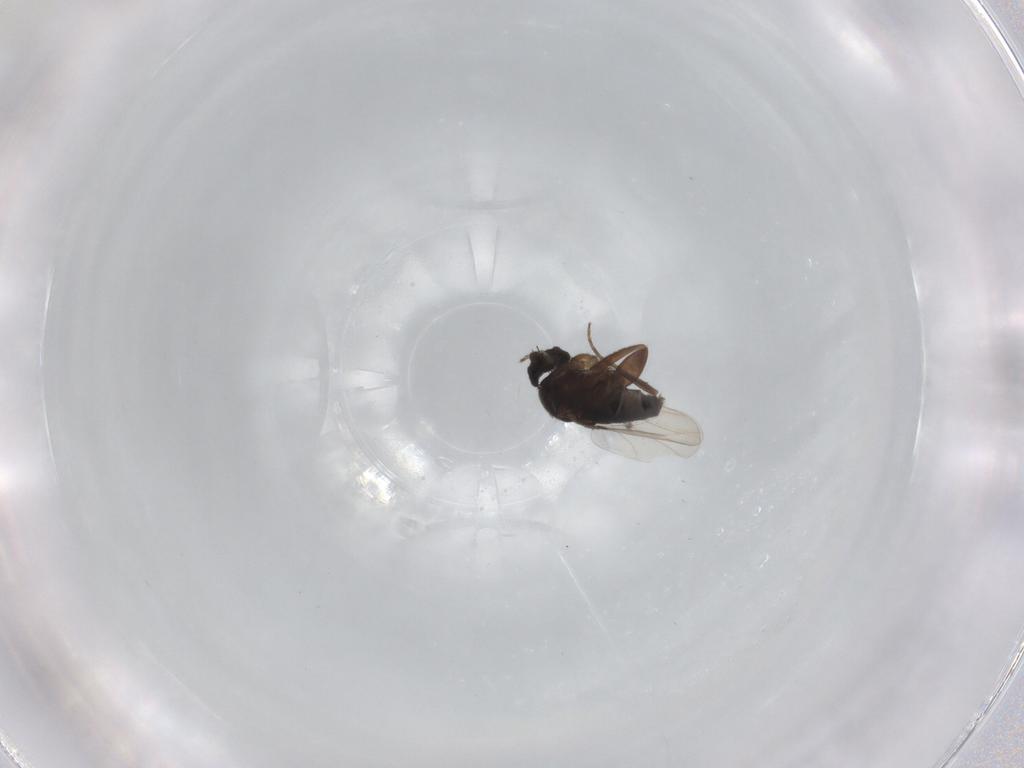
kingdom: Animalia
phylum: Arthropoda
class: Insecta
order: Diptera
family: Phoridae
